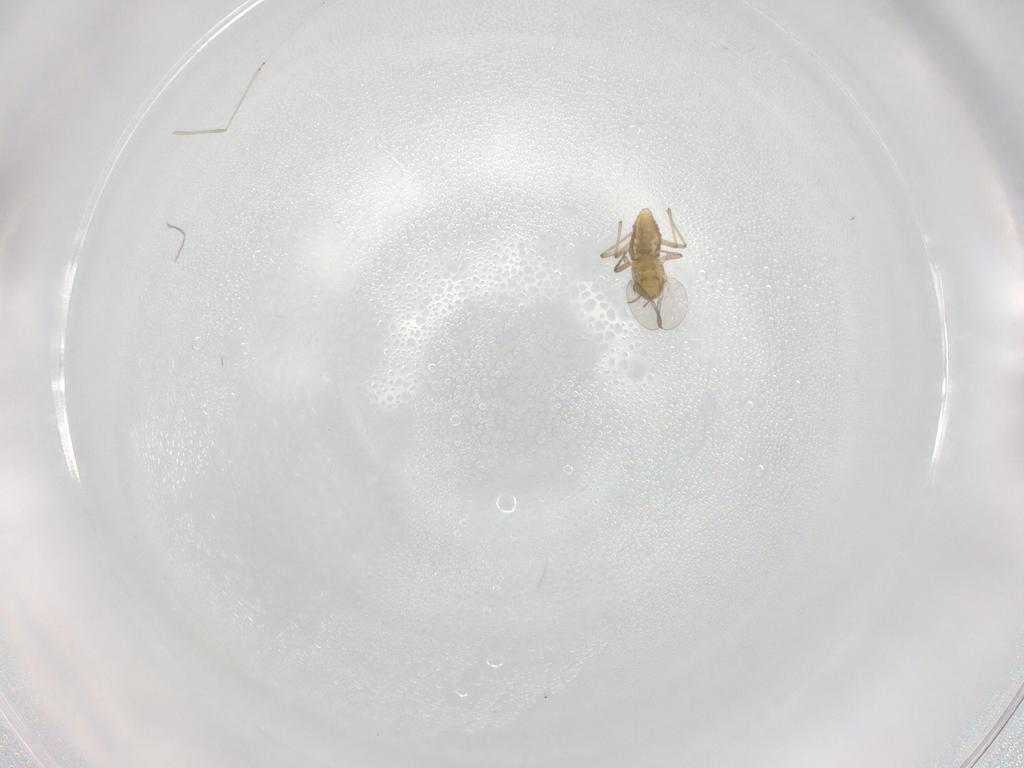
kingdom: Animalia
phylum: Arthropoda
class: Insecta
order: Diptera
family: Chironomidae
